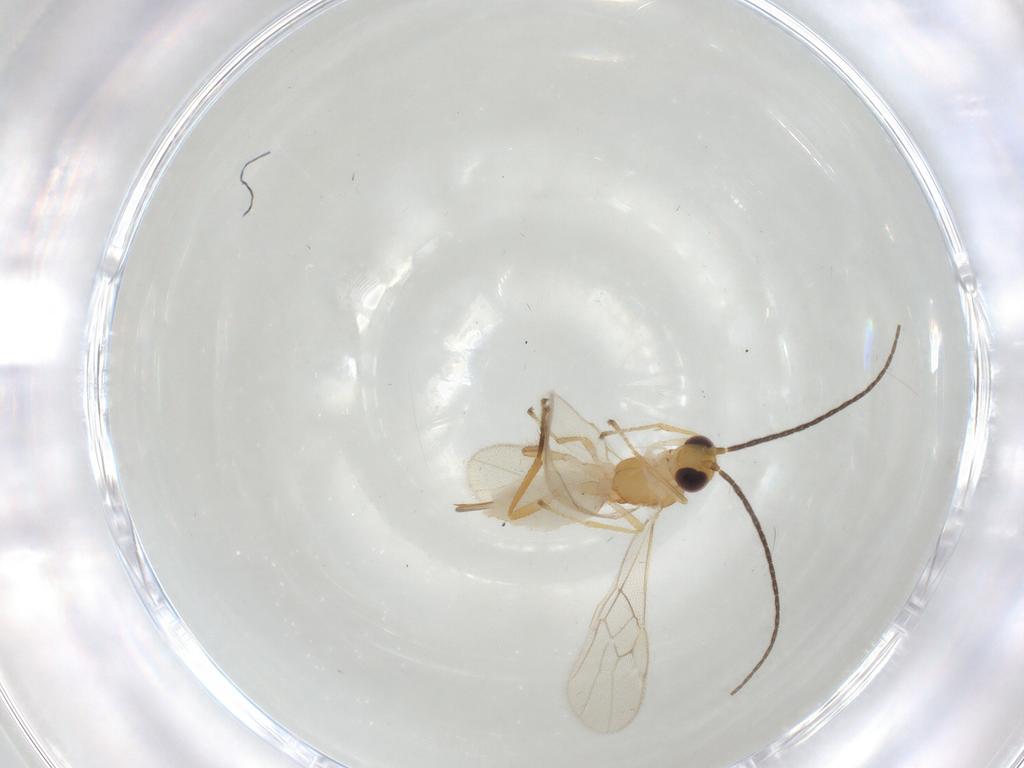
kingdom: Animalia
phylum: Arthropoda
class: Insecta
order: Hymenoptera
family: Braconidae
